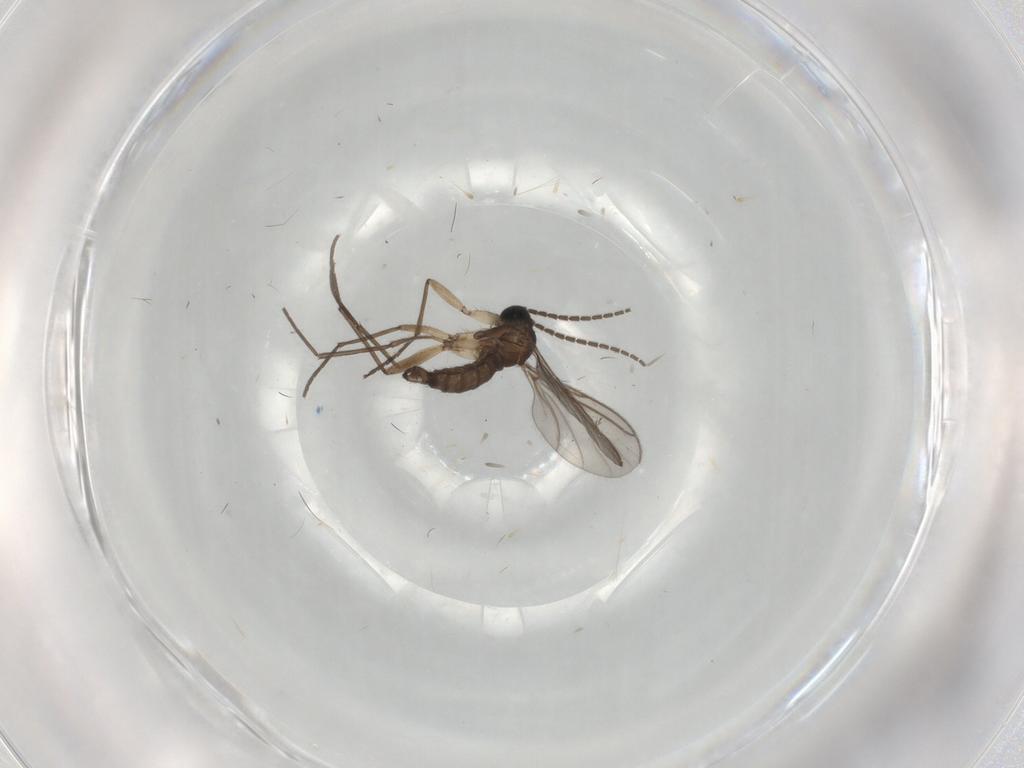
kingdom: Animalia
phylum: Arthropoda
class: Insecta
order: Diptera
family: Sciaridae
